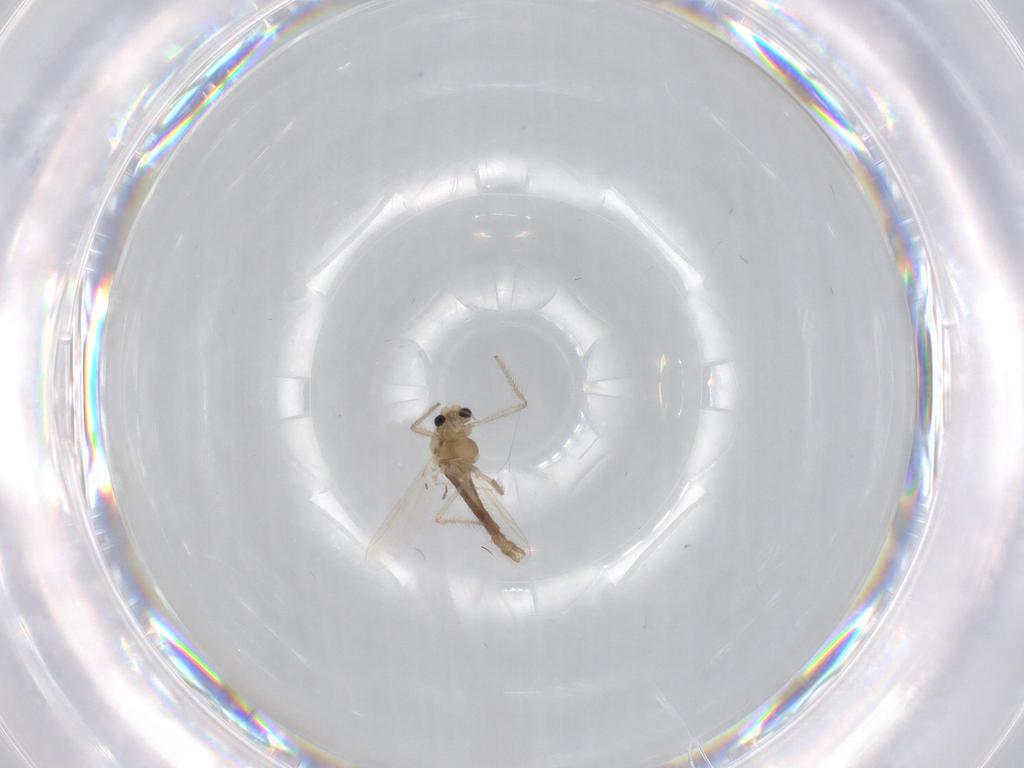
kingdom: Animalia
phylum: Arthropoda
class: Insecta
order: Diptera
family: Chironomidae
